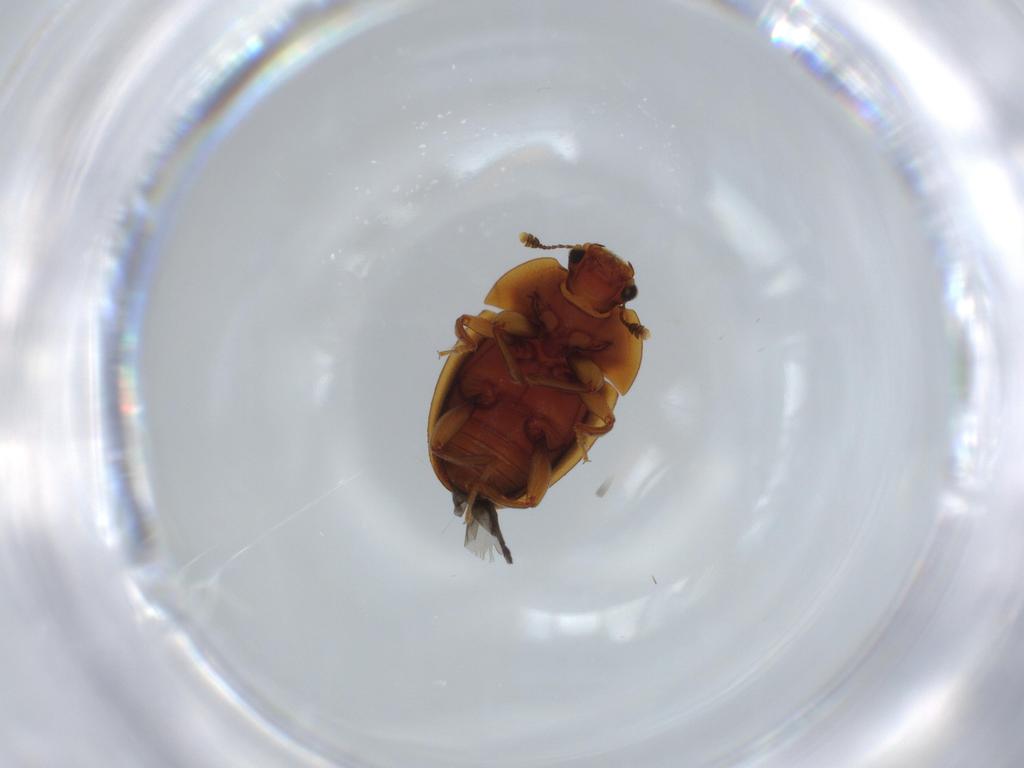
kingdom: Animalia
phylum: Arthropoda
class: Insecta
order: Coleoptera
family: Nitidulidae
